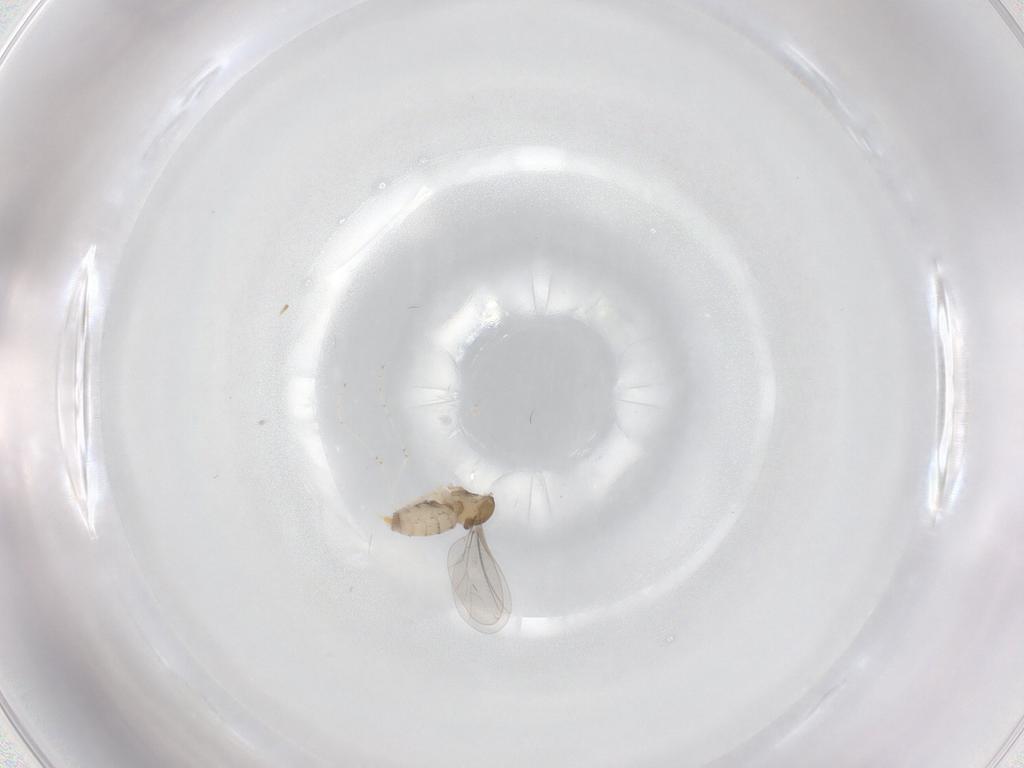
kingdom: Animalia
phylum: Arthropoda
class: Insecta
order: Diptera
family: Cecidomyiidae
